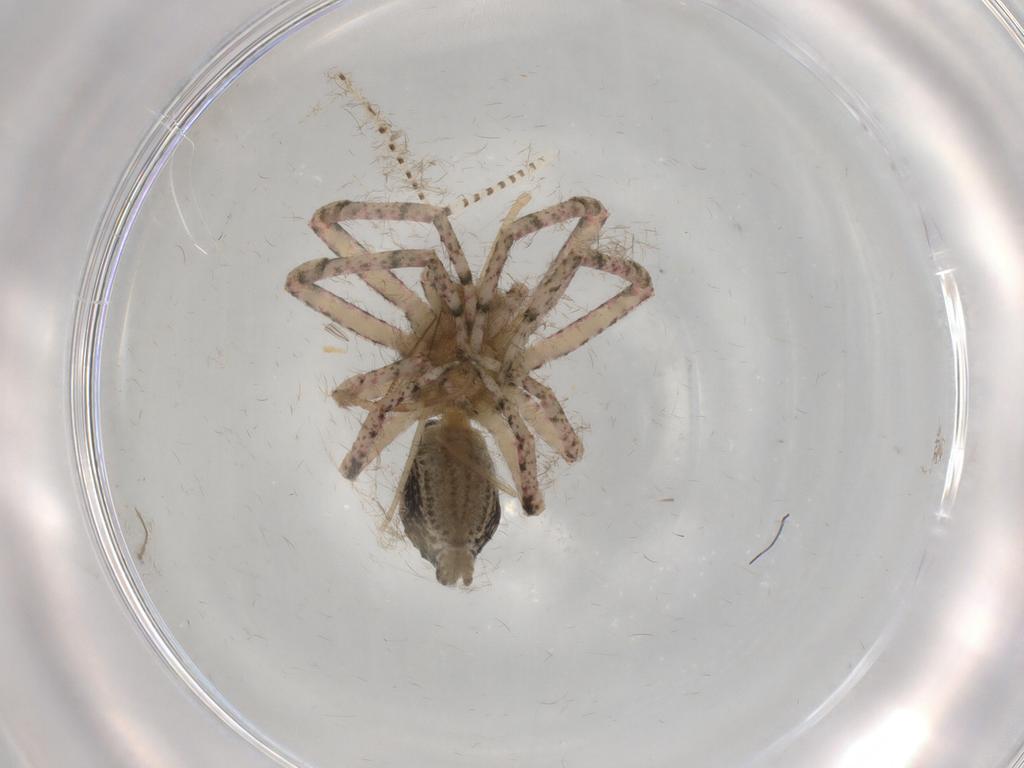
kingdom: Animalia
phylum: Arthropoda
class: Arachnida
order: Araneae
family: Thomisidae
